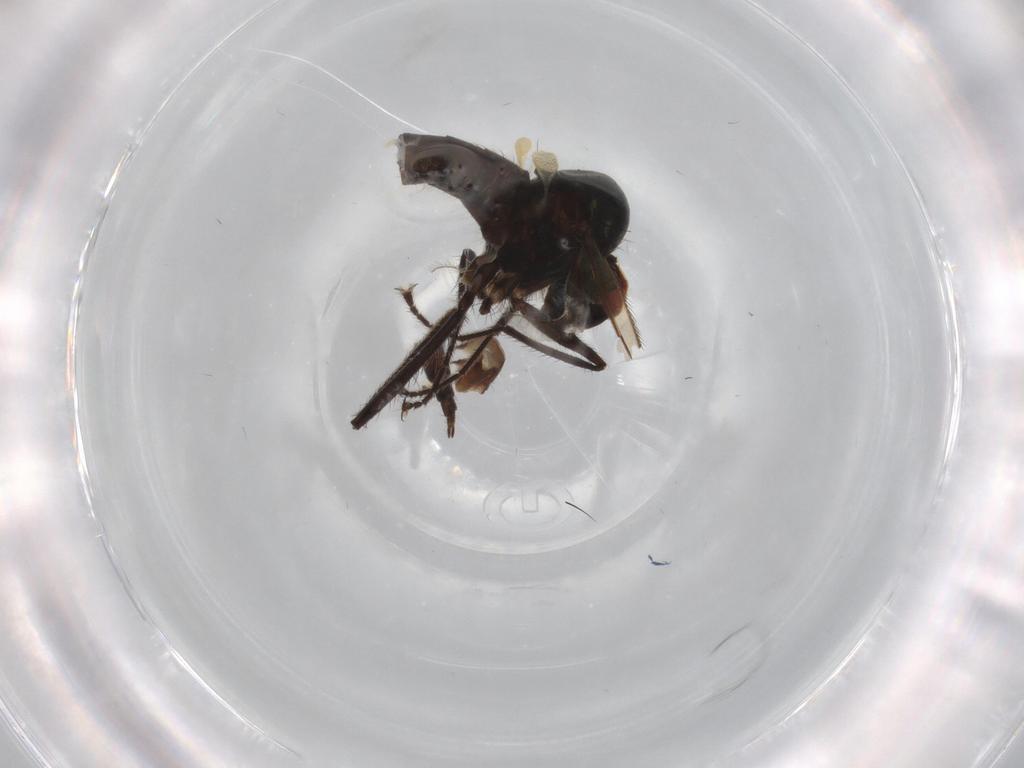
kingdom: Animalia
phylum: Arthropoda
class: Insecta
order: Diptera
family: Hybotidae
